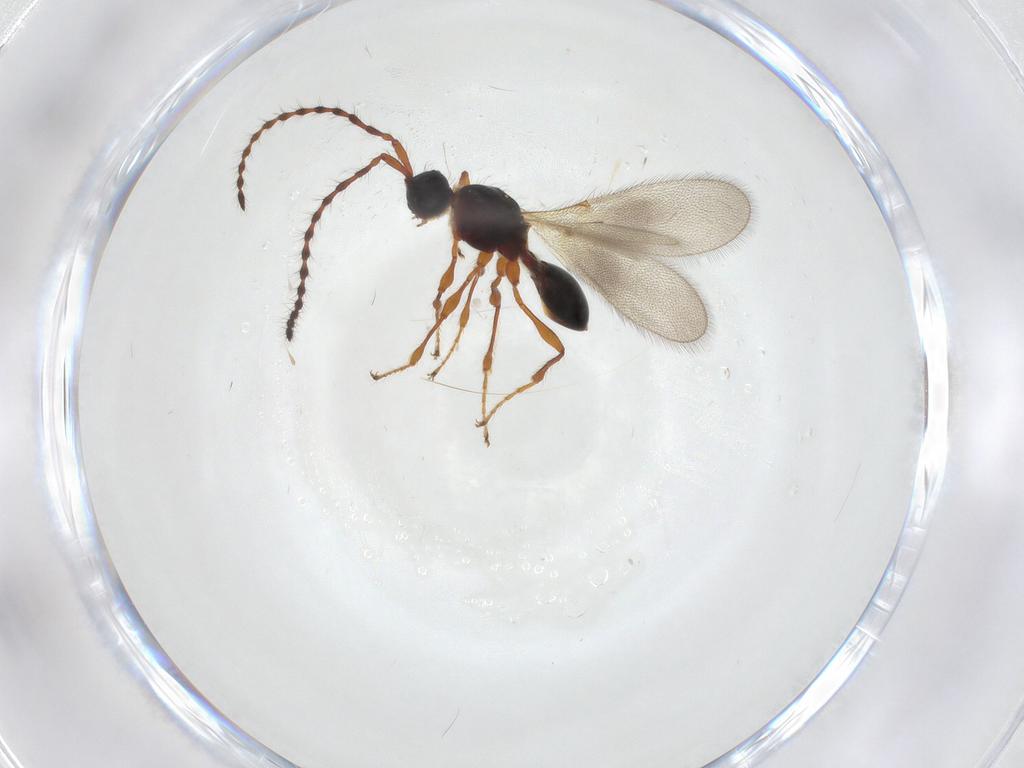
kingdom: Animalia
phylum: Arthropoda
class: Insecta
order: Hymenoptera
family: Diapriidae
